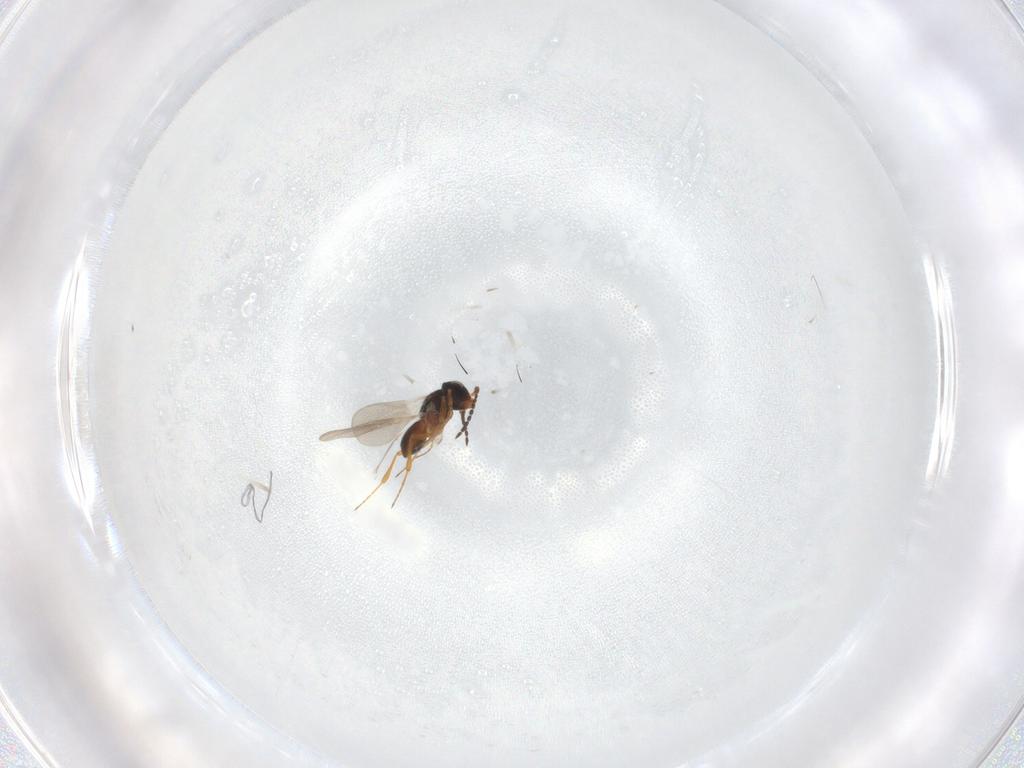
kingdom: Animalia
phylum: Arthropoda
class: Insecta
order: Hymenoptera
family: Platygastridae
